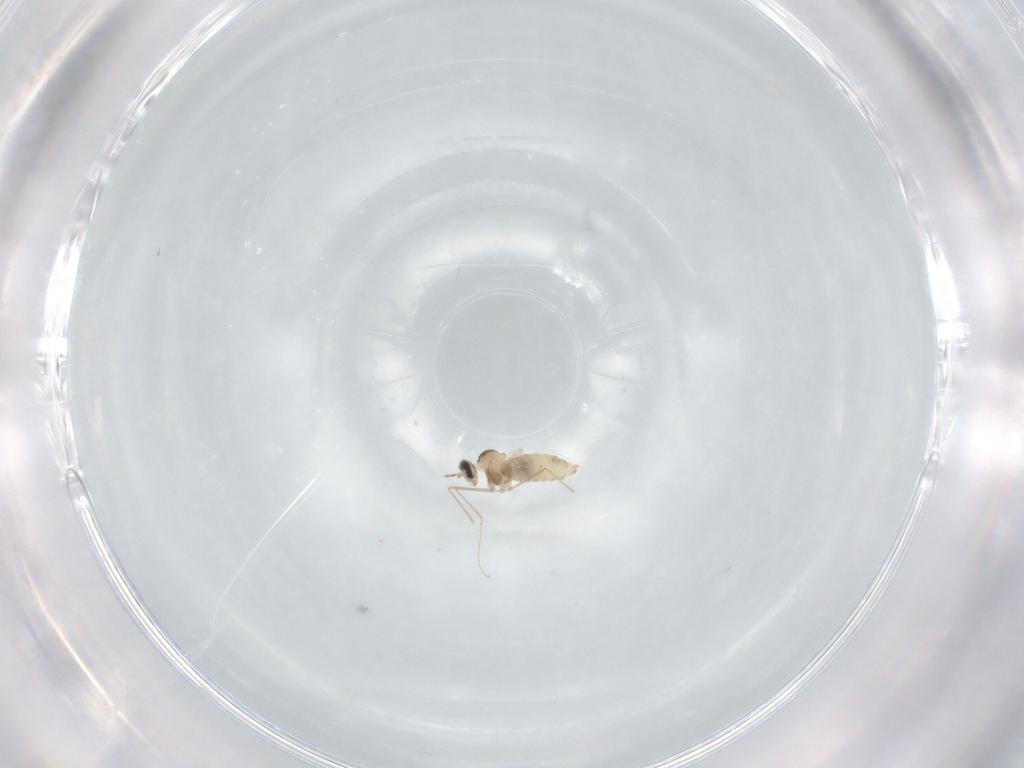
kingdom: Animalia
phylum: Arthropoda
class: Insecta
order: Diptera
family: Cecidomyiidae
